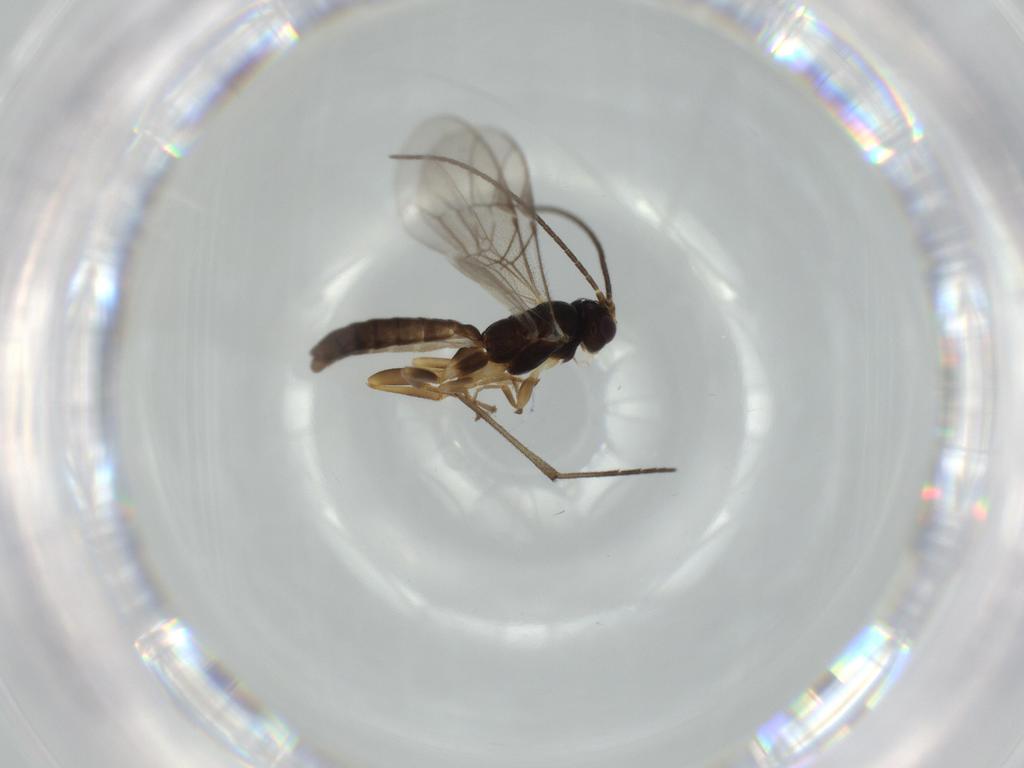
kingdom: Animalia
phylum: Arthropoda
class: Insecta
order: Hymenoptera
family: Ichneumonidae
